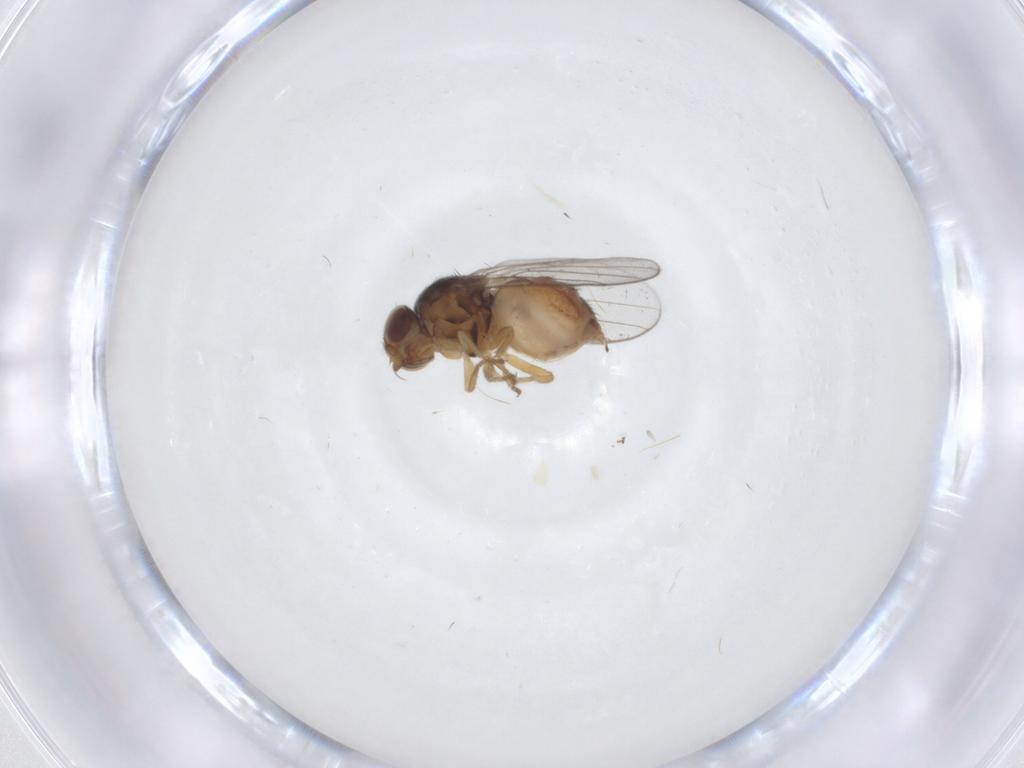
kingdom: Animalia
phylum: Arthropoda
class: Insecta
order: Diptera
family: Chloropidae
